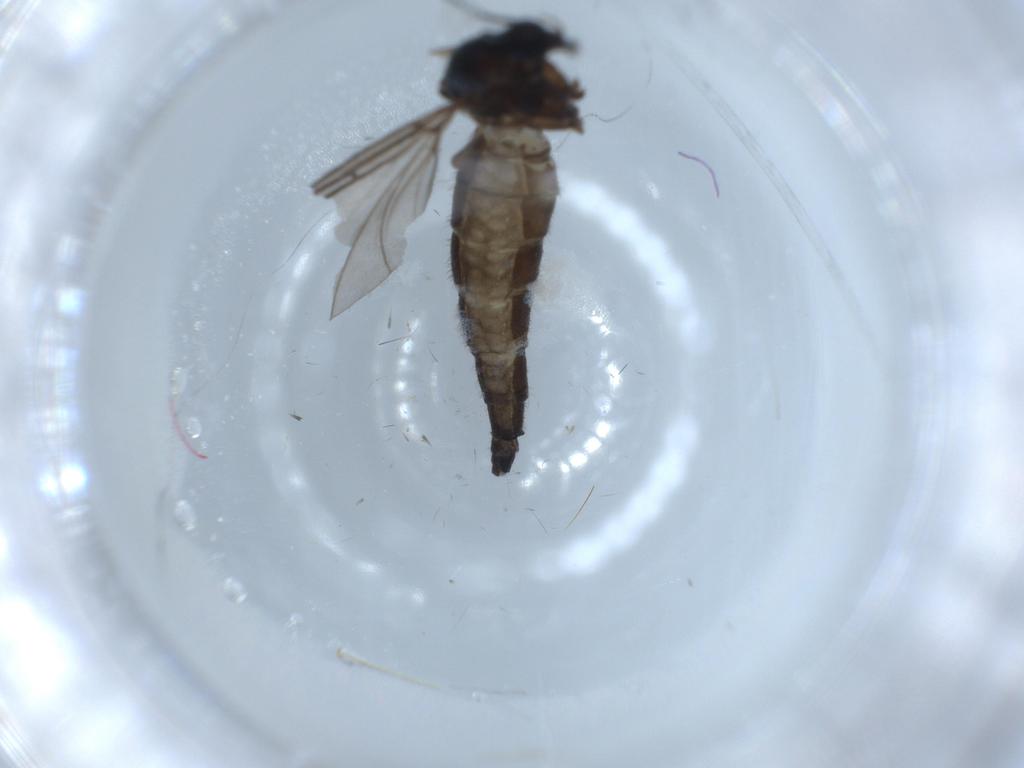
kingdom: Animalia
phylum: Arthropoda
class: Insecta
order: Diptera
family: Sciaridae
